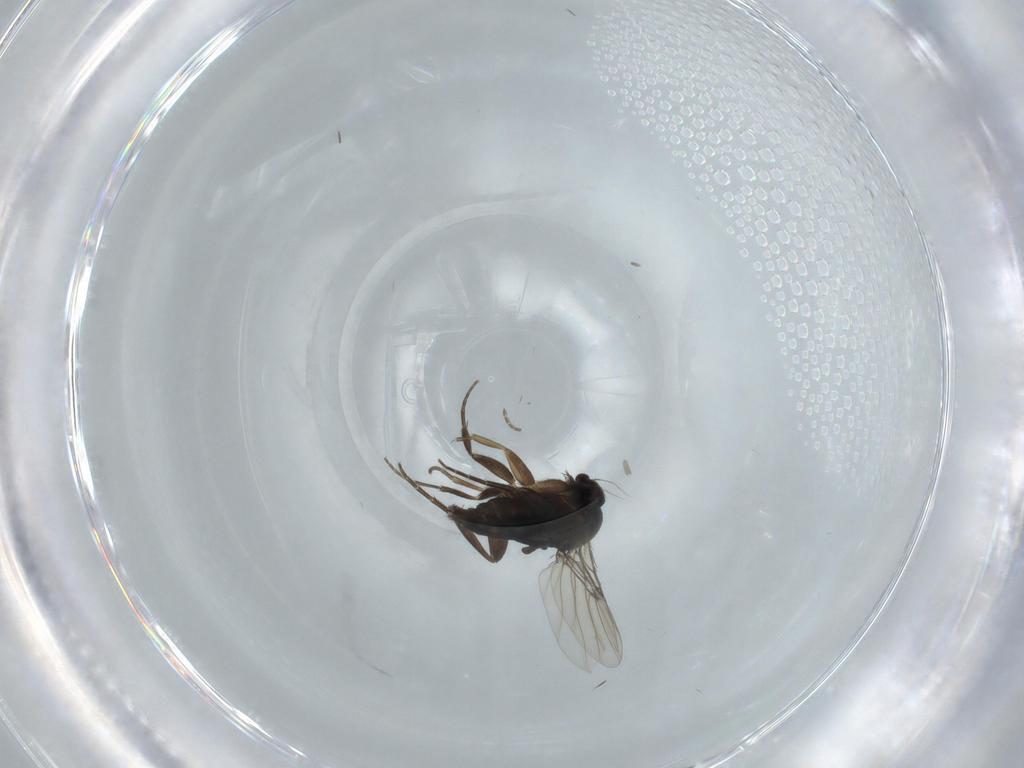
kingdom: Animalia
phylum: Arthropoda
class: Insecta
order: Diptera
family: Phoridae
